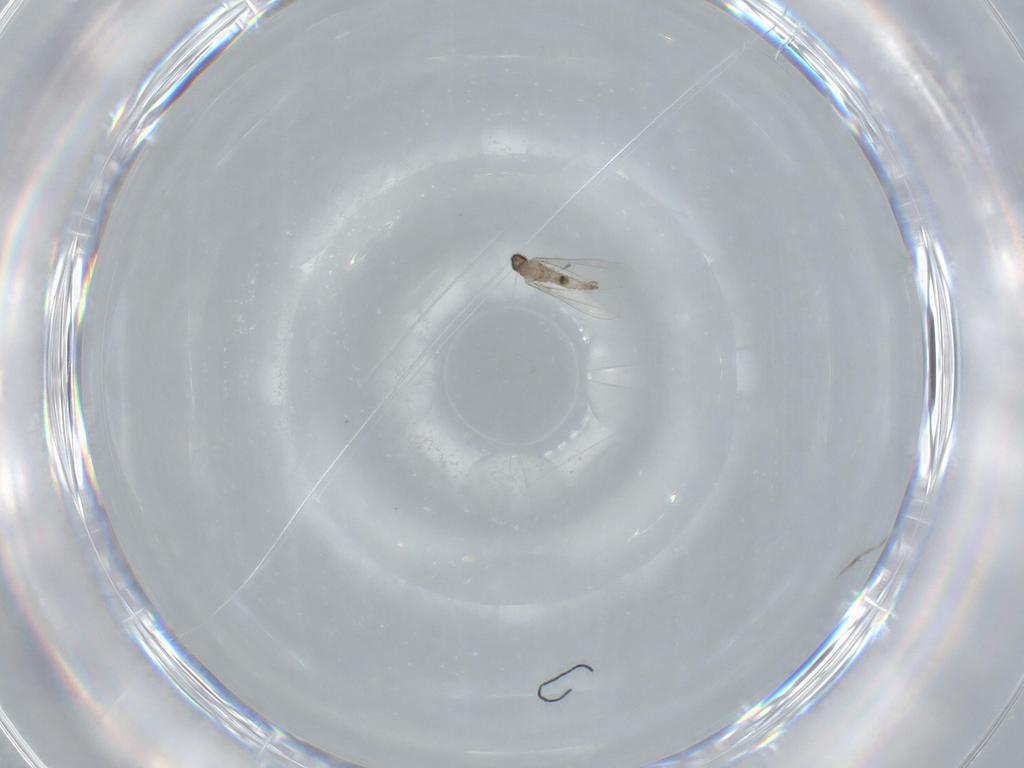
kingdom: Animalia
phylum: Arthropoda
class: Insecta
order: Diptera
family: Cecidomyiidae
